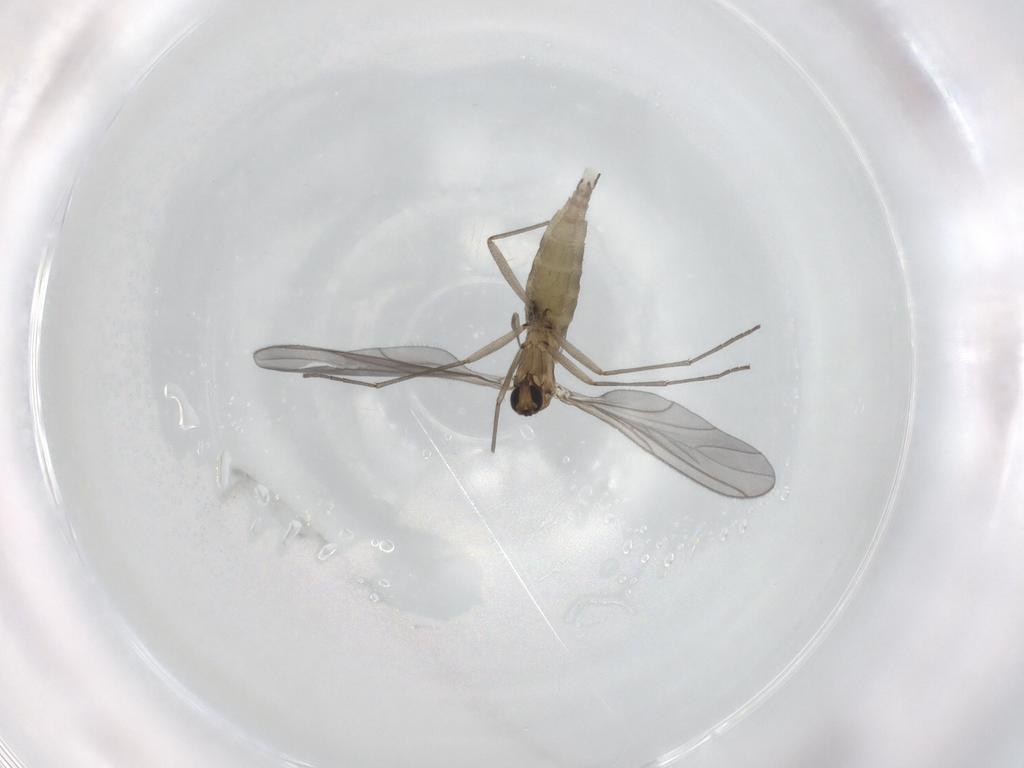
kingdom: Animalia
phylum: Arthropoda
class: Insecta
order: Diptera
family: Sciaridae
